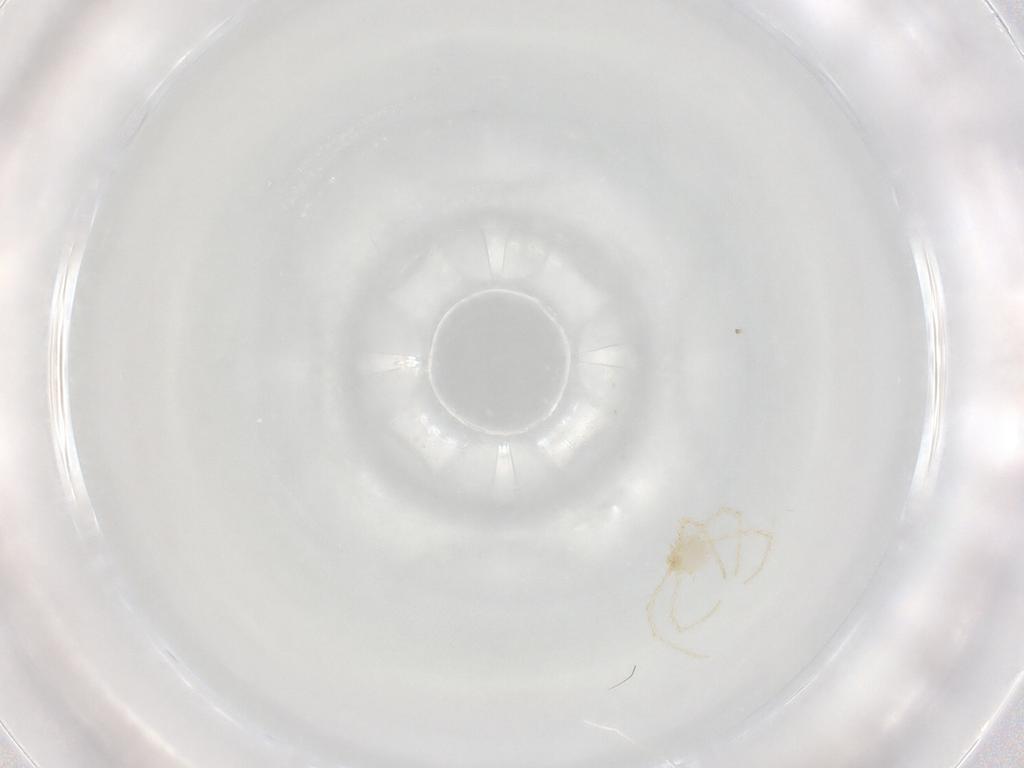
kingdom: Animalia
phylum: Arthropoda
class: Arachnida
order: Trombidiformes
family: Erythraeidae
